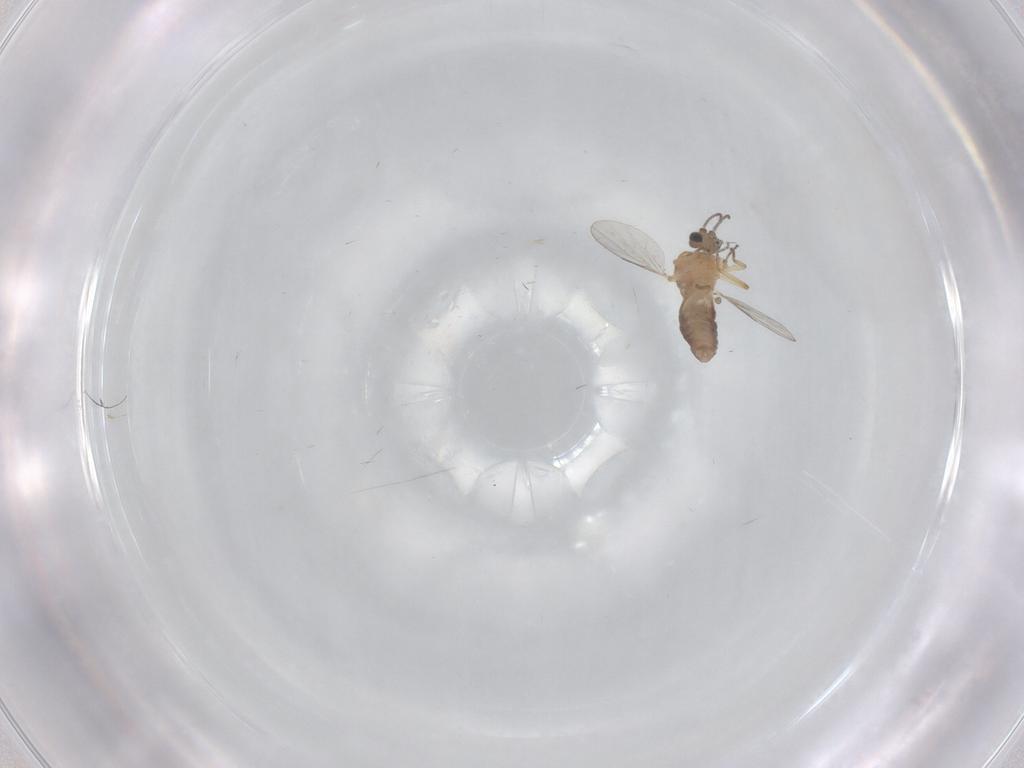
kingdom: Animalia
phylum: Arthropoda
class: Insecta
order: Diptera
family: Ceratopogonidae
